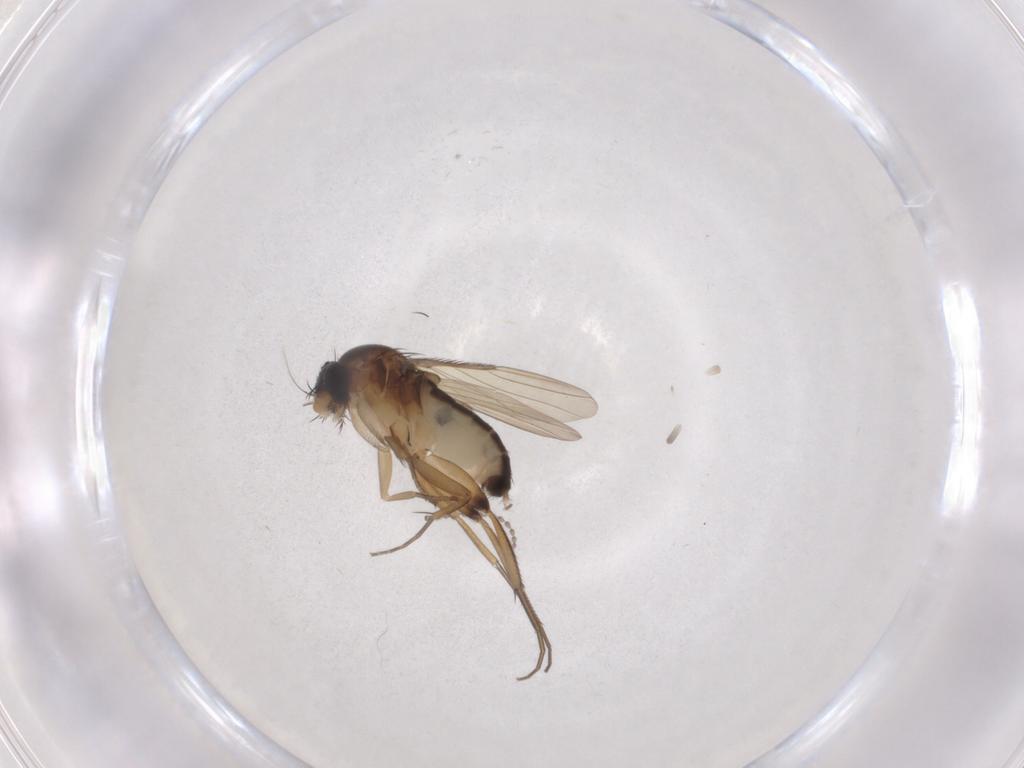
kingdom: Animalia
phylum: Arthropoda
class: Insecta
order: Diptera
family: Phoridae
